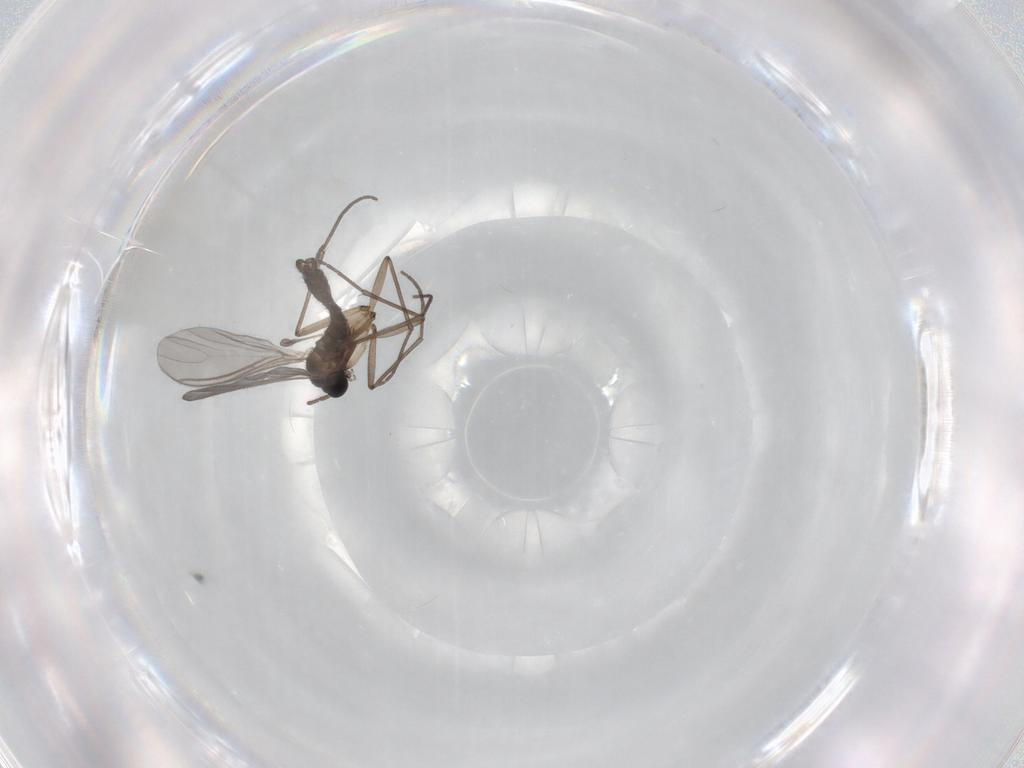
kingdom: Animalia
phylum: Arthropoda
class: Insecta
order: Diptera
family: Sciaridae
